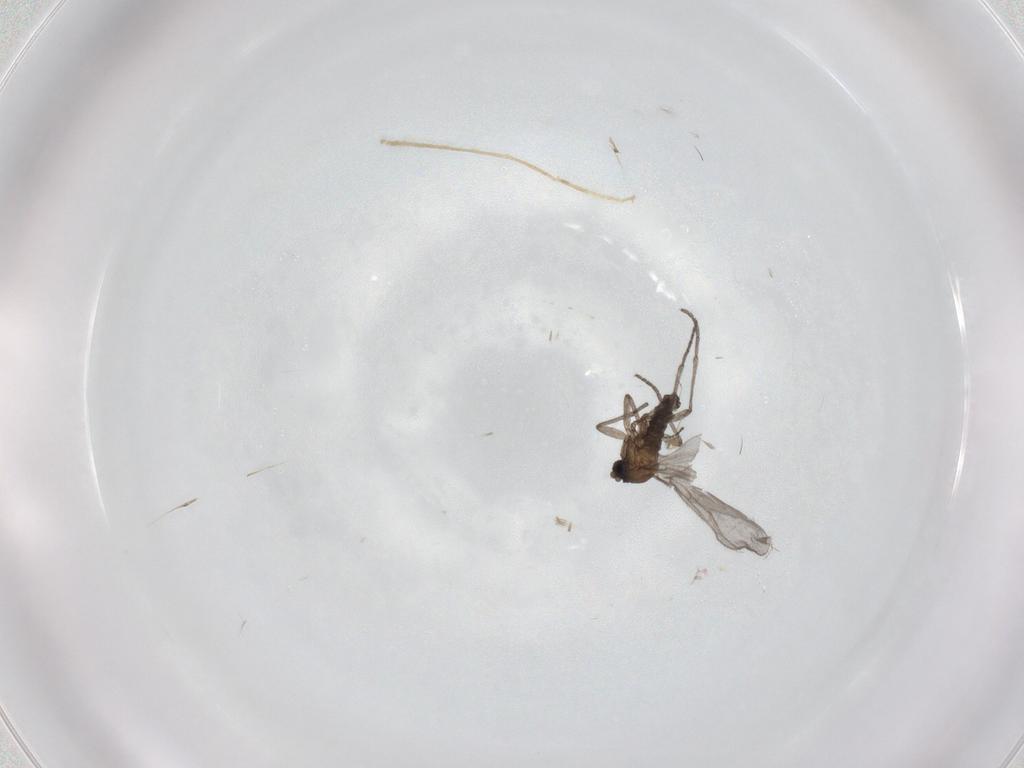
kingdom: Animalia
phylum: Arthropoda
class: Insecta
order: Diptera
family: Sciaridae
